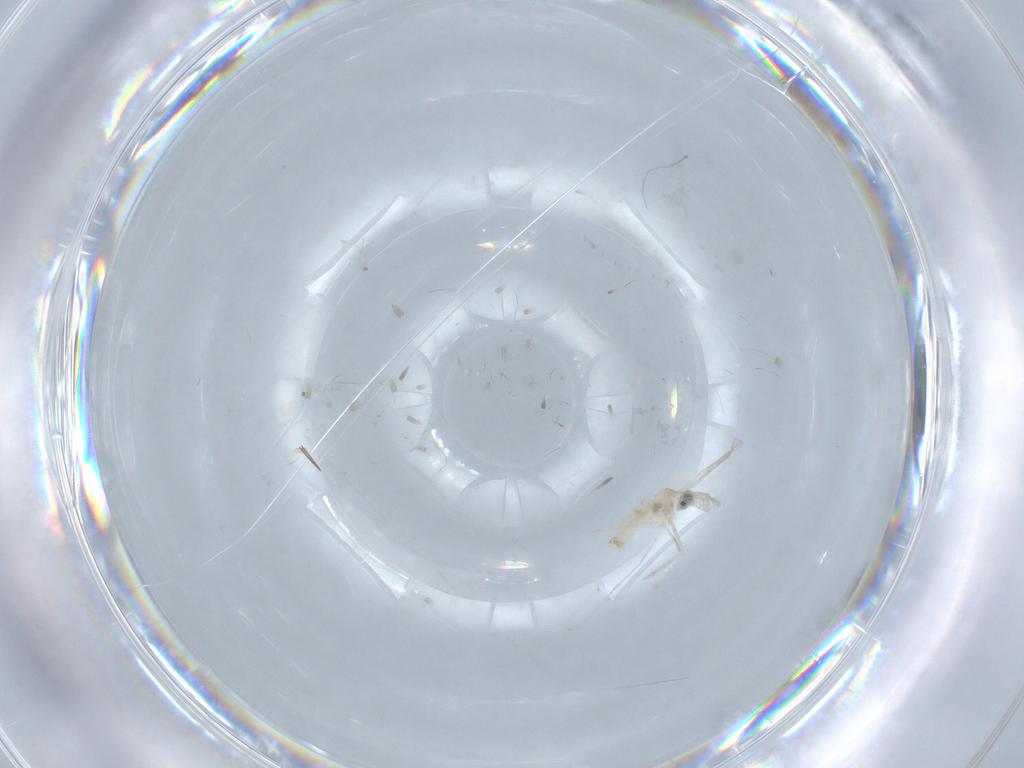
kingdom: Animalia
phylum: Arthropoda
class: Insecta
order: Diptera
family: Cecidomyiidae
